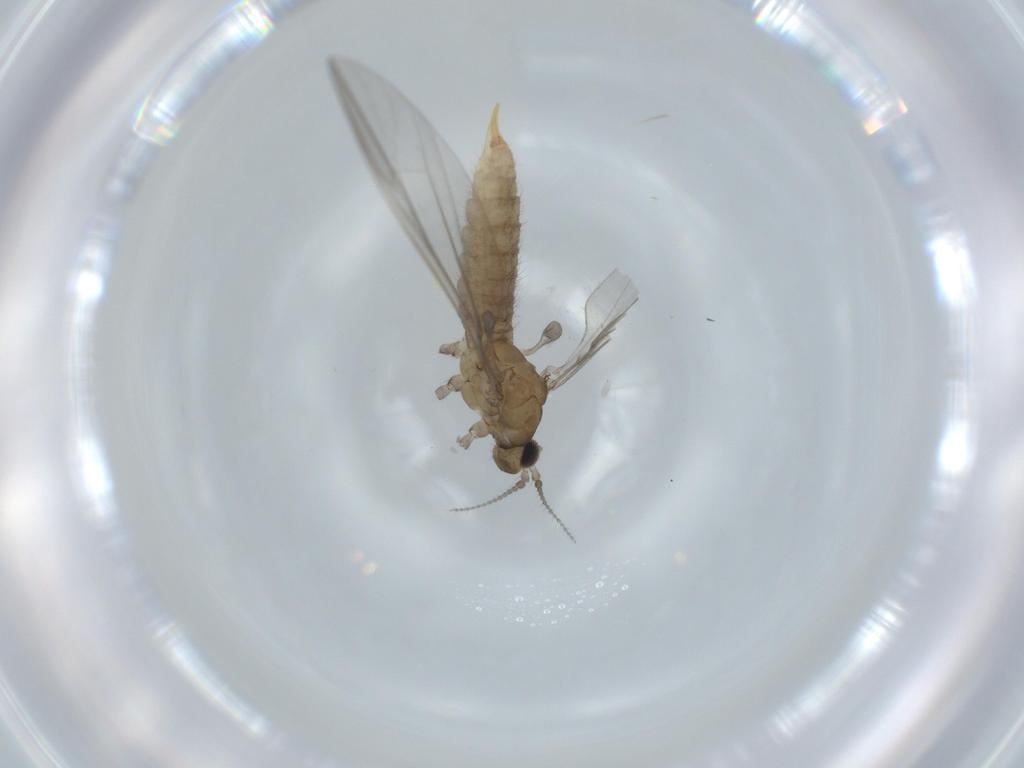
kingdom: Animalia
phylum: Arthropoda
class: Insecta
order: Diptera
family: Limoniidae
